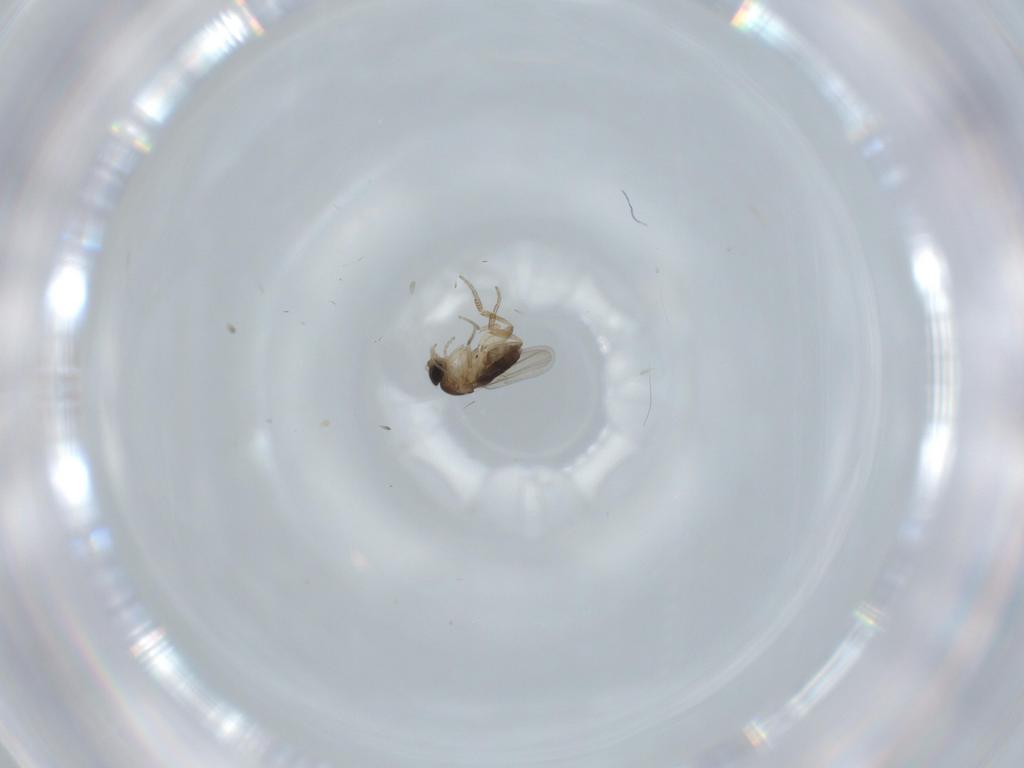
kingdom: Animalia
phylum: Arthropoda
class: Insecta
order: Diptera
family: Phoridae
